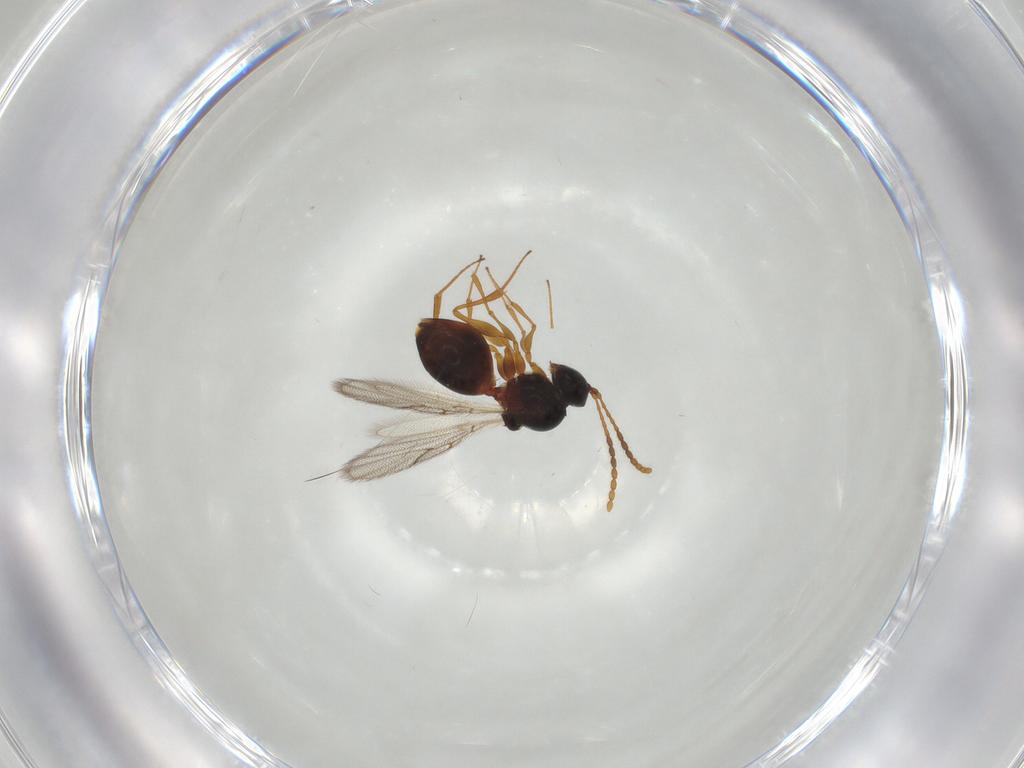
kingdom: Animalia
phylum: Arthropoda
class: Insecta
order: Hymenoptera
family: Figitidae
